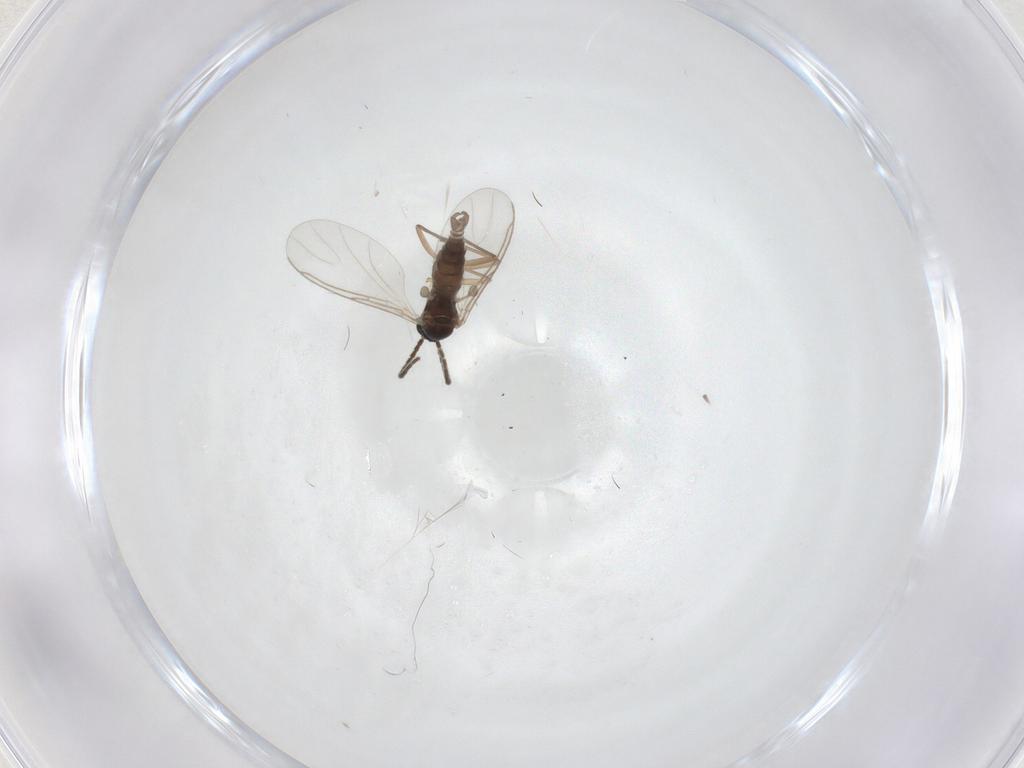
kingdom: Animalia
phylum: Arthropoda
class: Insecta
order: Diptera
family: Sciaridae
